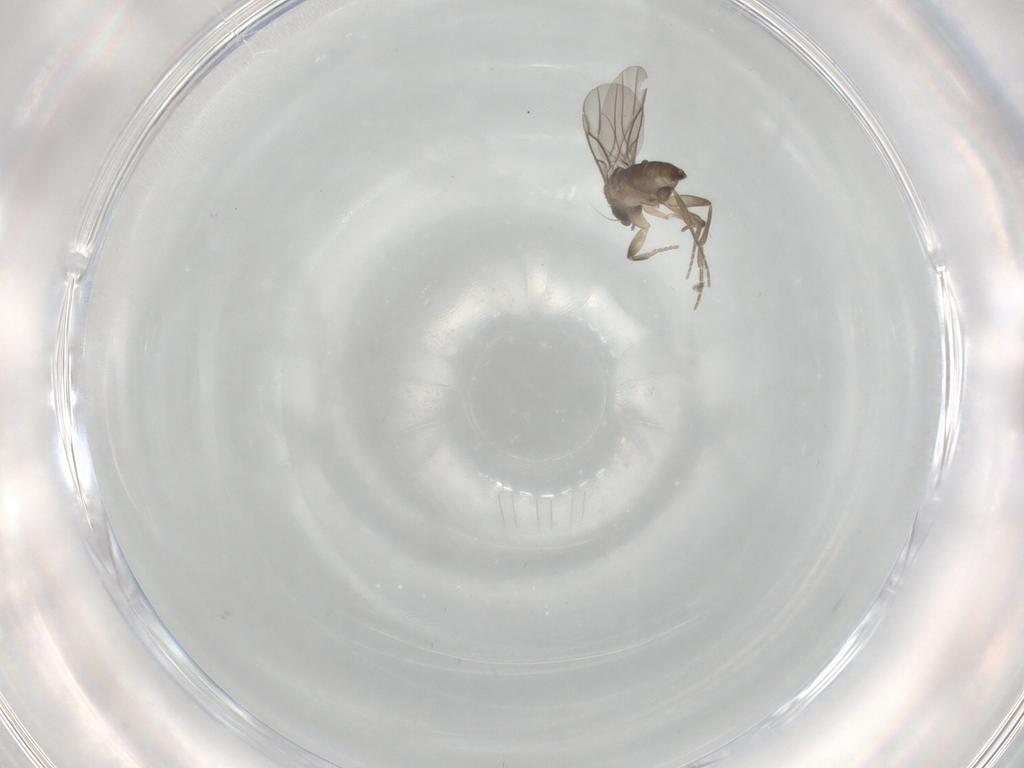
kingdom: Animalia
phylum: Arthropoda
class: Insecta
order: Diptera
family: Phoridae
